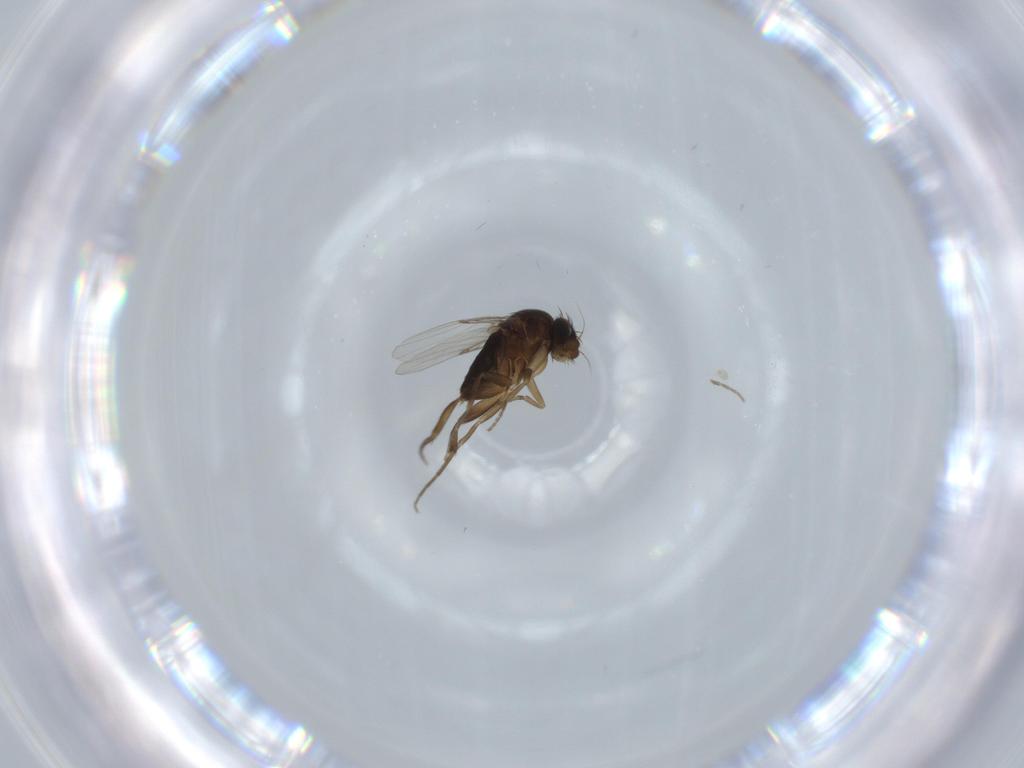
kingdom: Animalia
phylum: Arthropoda
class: Insecta
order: Diptera
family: Phoridae
